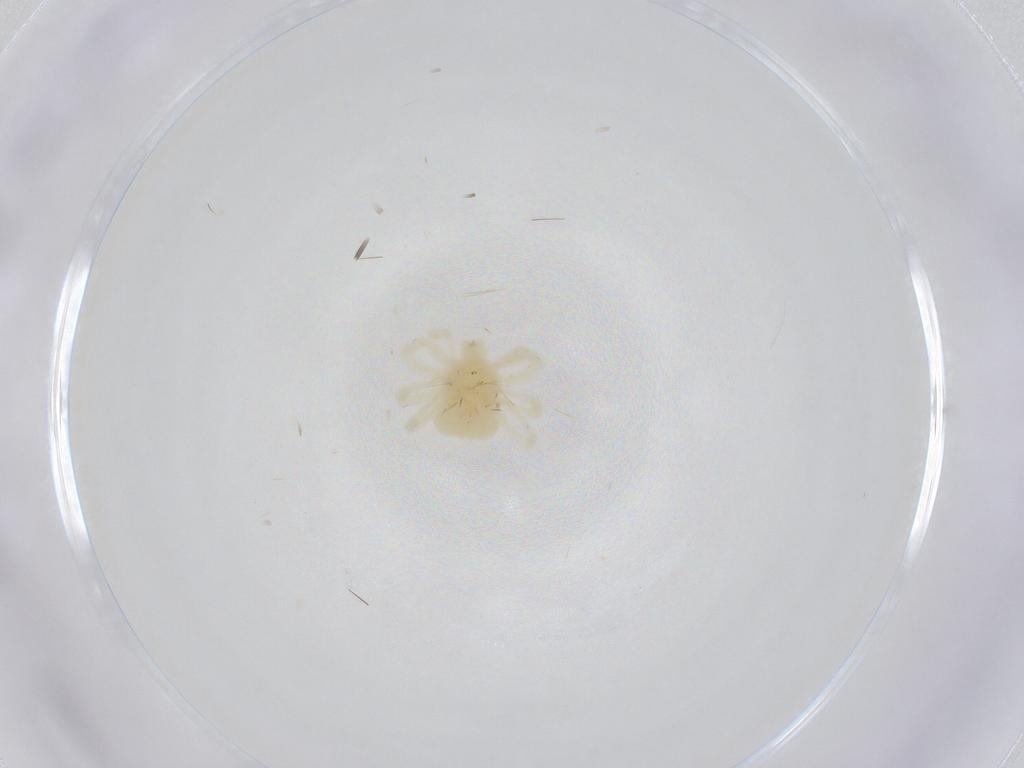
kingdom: Animalia
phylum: Arthropoda
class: Arachnida
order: Trombidiformes
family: Anystidae
